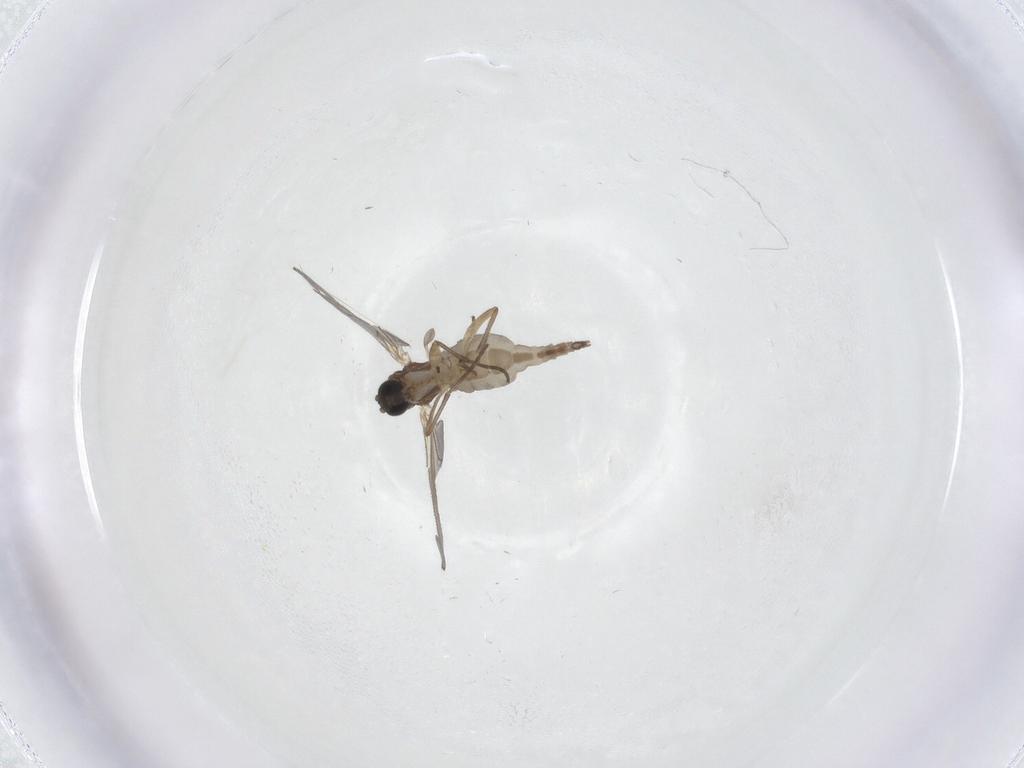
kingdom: Animalia
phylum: Arthropoda
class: Insecta
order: Diptera
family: Sciaridae
